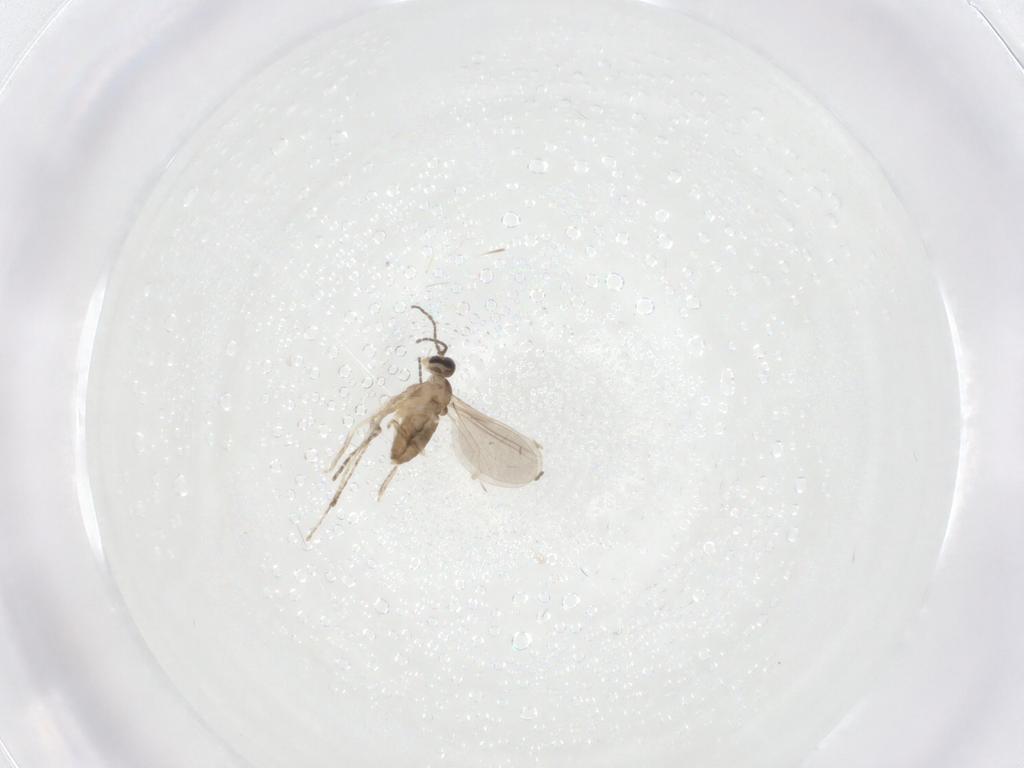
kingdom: Animalia
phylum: Arthropoda
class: Insecta
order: Diptera
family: Cecidomyiidae
